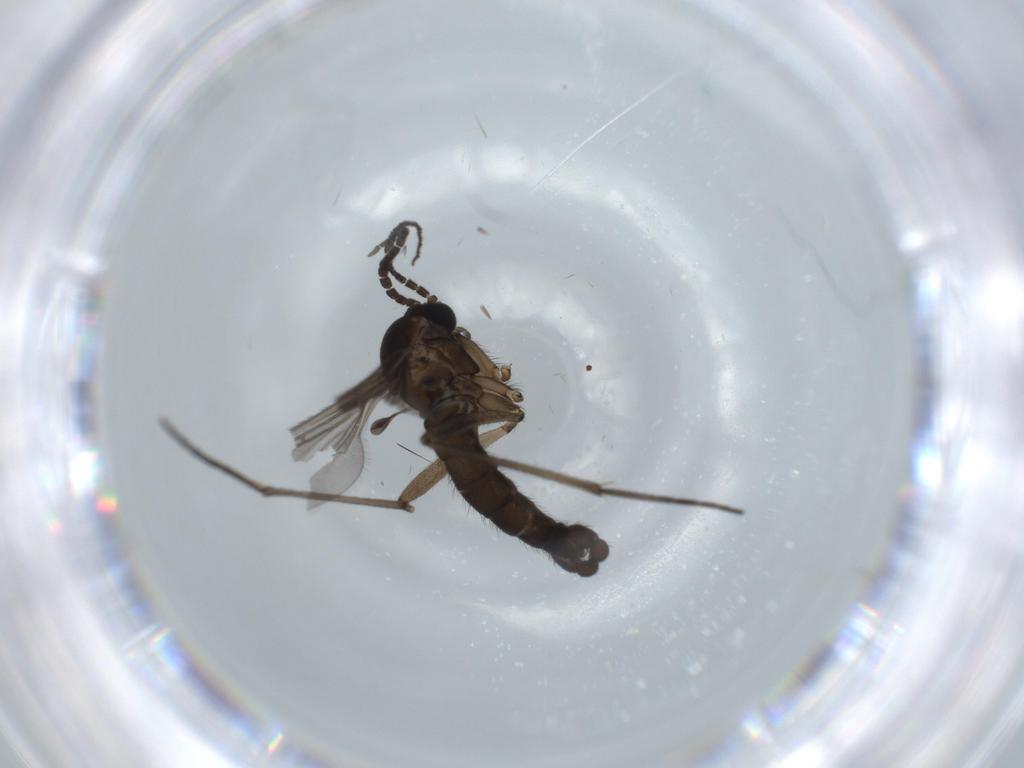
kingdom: Animalia
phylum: Arthropoda
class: Insecta
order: Diptera
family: Sciaridae
